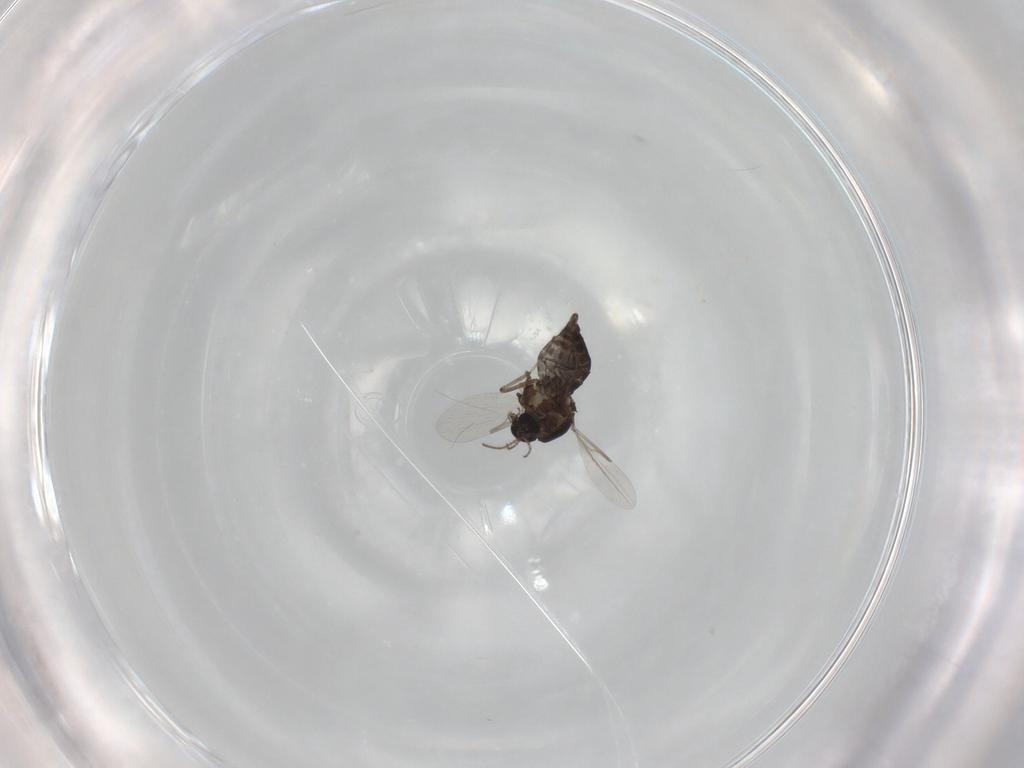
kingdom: Animalia
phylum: Arthropoda
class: Insecta
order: Diptera
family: Ceratopogonidae
